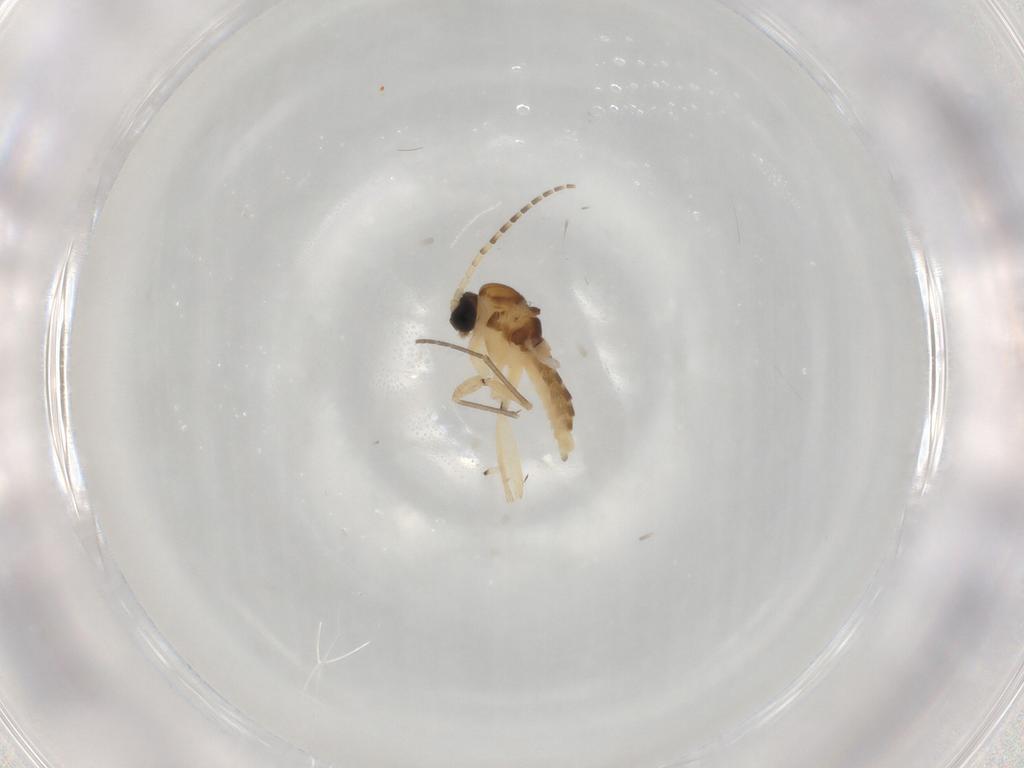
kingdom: Animalia
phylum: Arthropoda
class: Insecta
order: Diptera
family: Sciaridae
